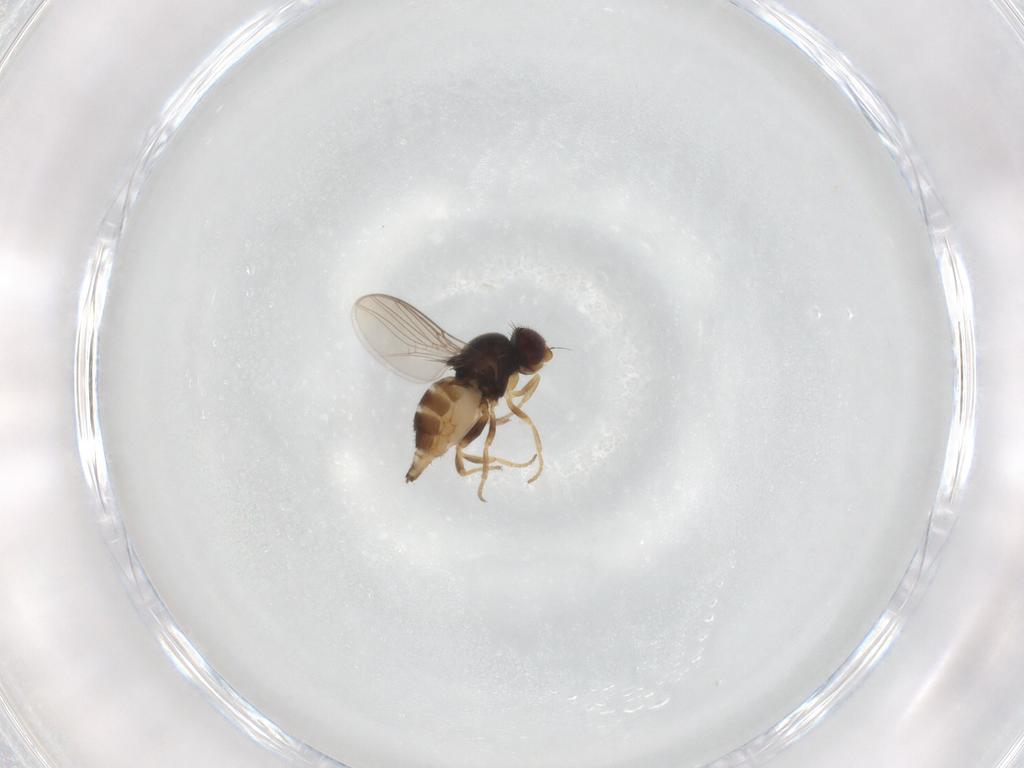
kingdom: Animalia
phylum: Arthropoda
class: Insecta
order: Diptera
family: Chloropidae
